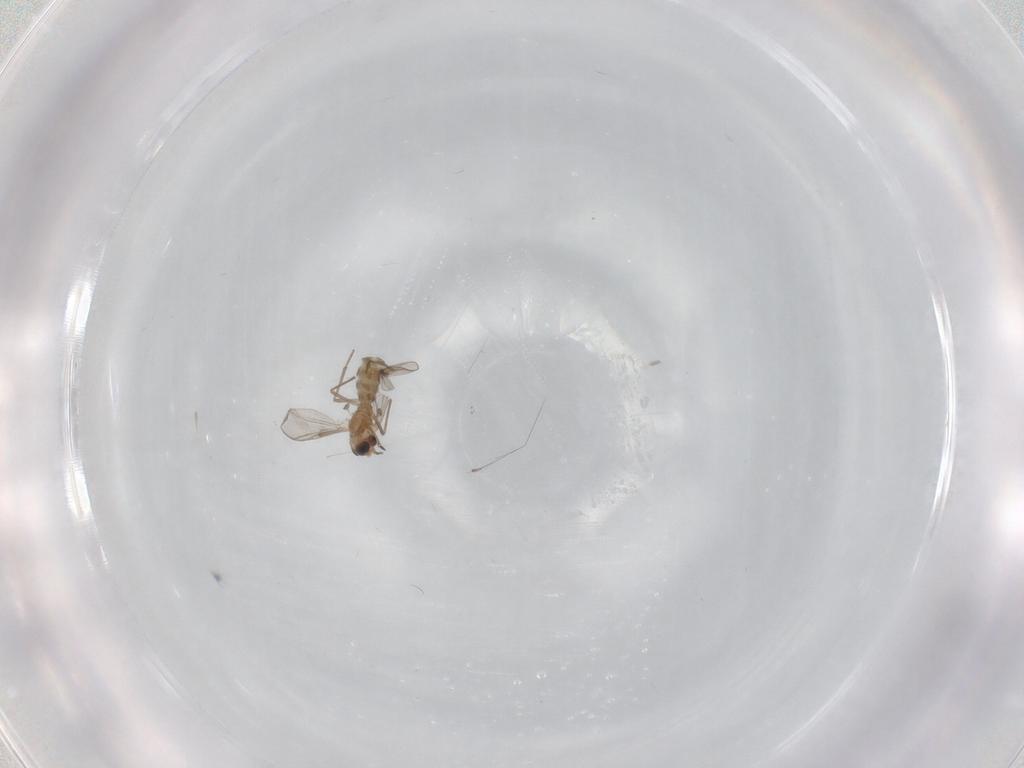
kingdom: Animalia
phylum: Arthropoda
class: Insecta
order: Diptera
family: Chironomidae
